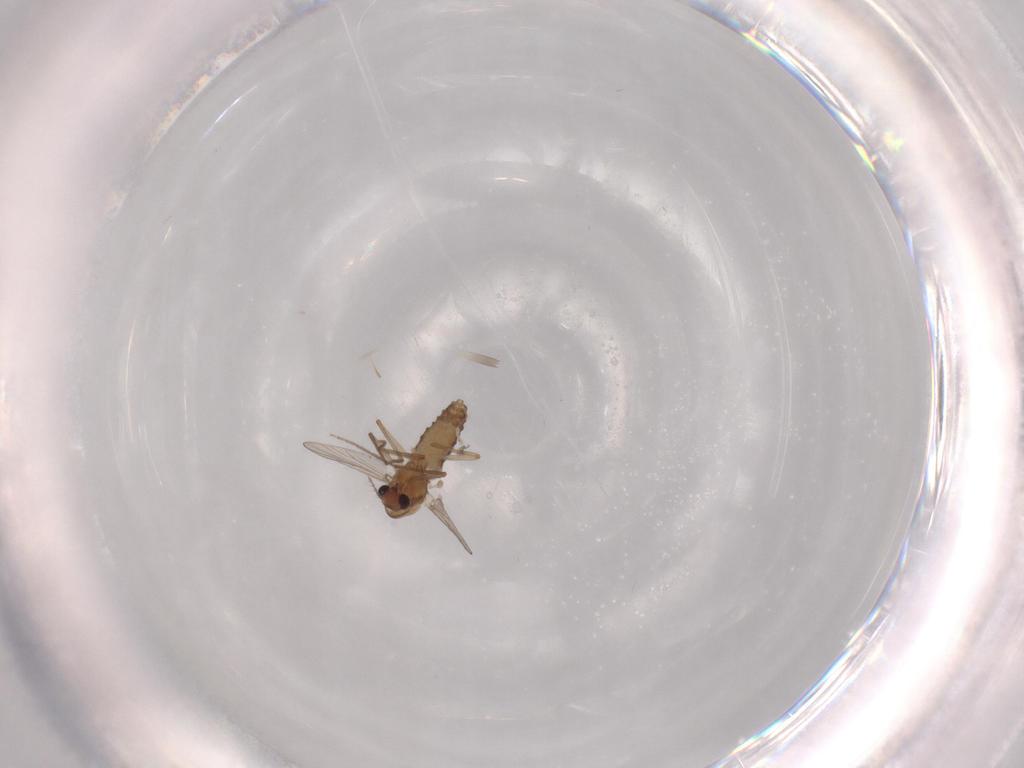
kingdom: Animalia
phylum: Arthropoda
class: Insecta
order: Diptera
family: Chironomidae
